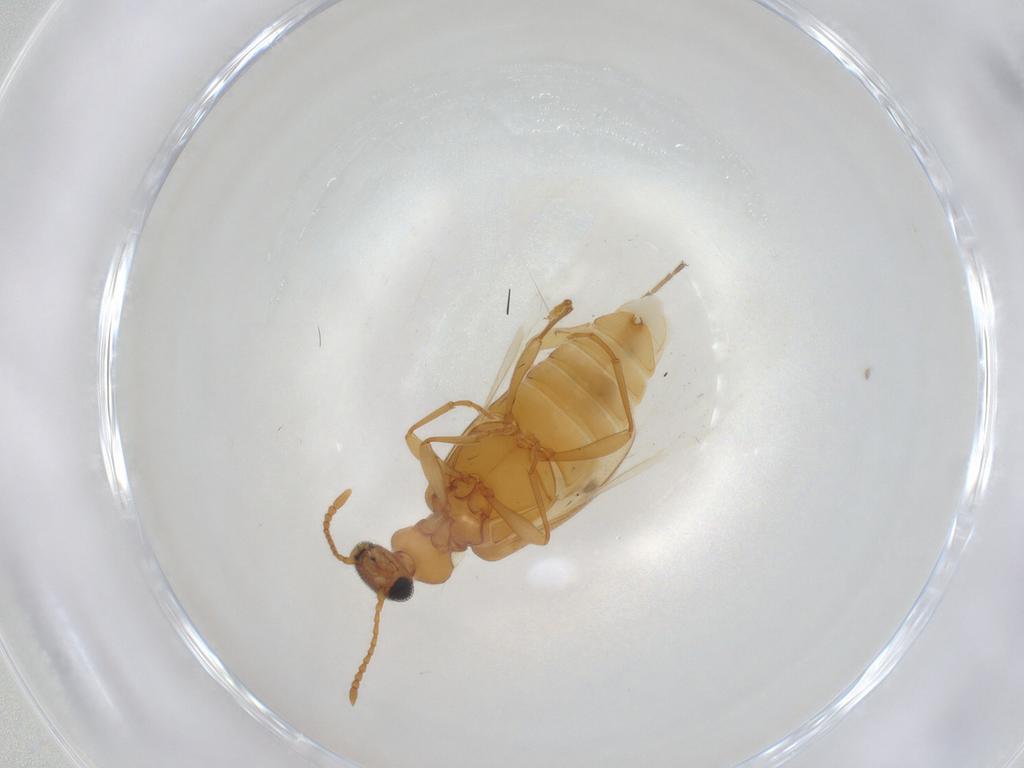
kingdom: Animalia
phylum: Arthropoda
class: Insecta
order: Coleoptera
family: Anthicidae
